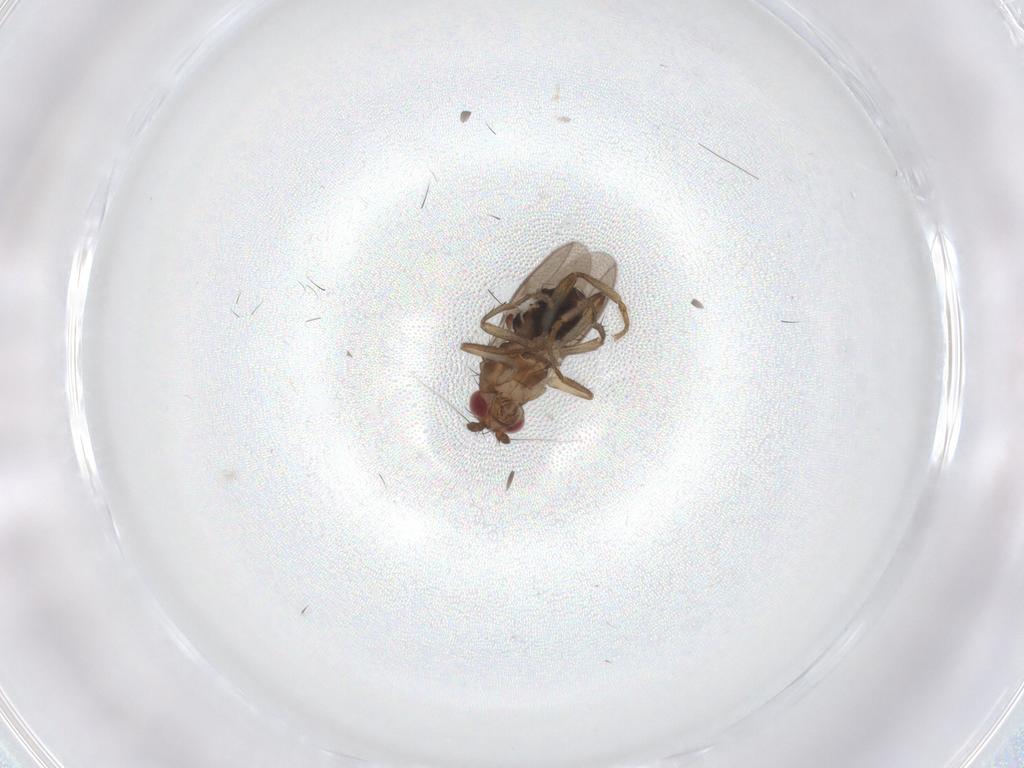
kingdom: Animalia
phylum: Arthropoda
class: Insecta
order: Diptera
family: Sphaeroceridae
